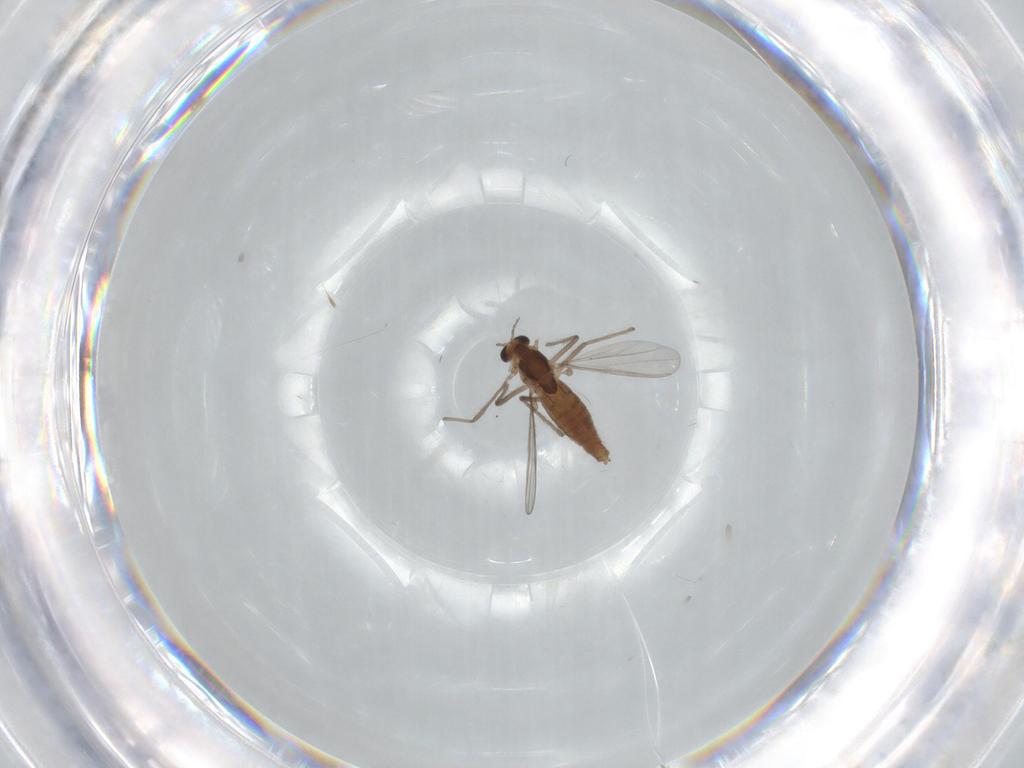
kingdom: Animalia
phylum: Arthropoda
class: Insecta
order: Diptera
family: Chironomidae
